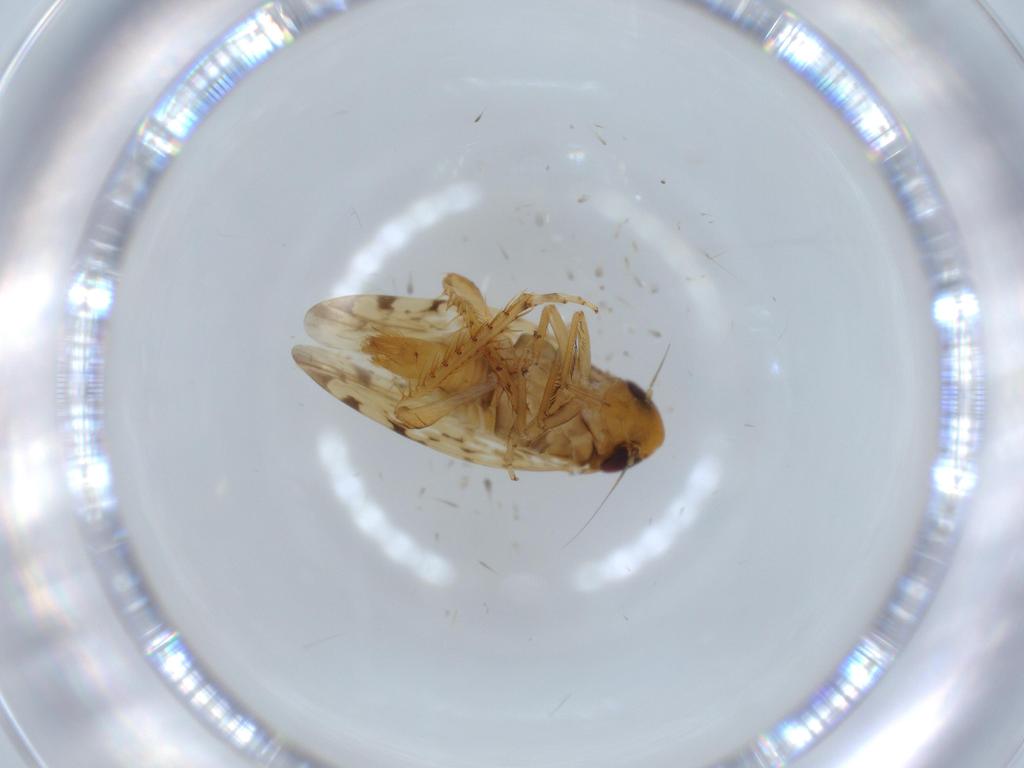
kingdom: Animalia
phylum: Arthropoda
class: Insecta
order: Hemiptera
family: Cicadellidae
